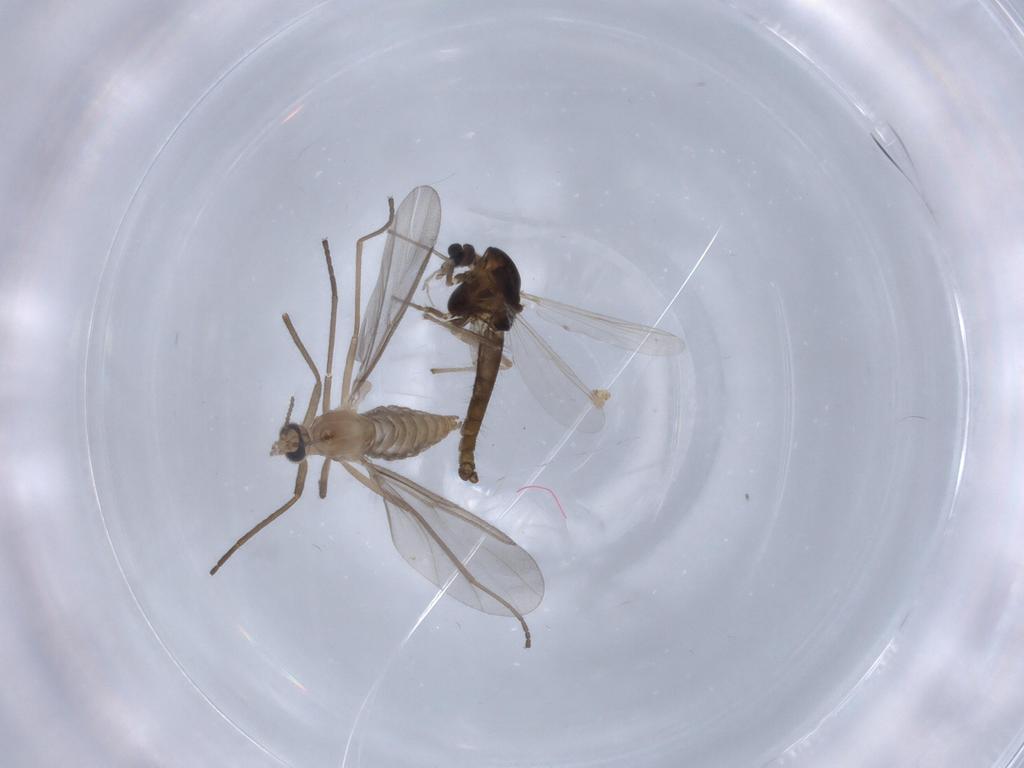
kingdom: Animalia
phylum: Arthropoda
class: Insecta
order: Diptera
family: Cecidomyiidae
